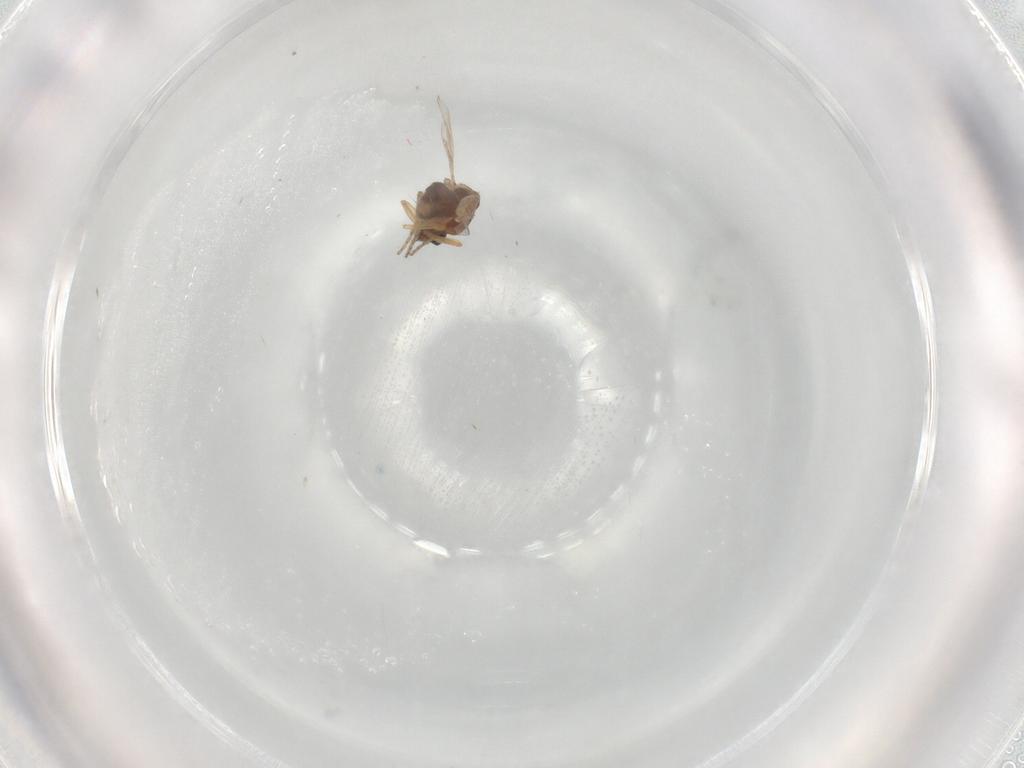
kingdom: Animalia
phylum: Arthropoda
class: Insecta
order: Diptera
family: Ceratopogonidae
